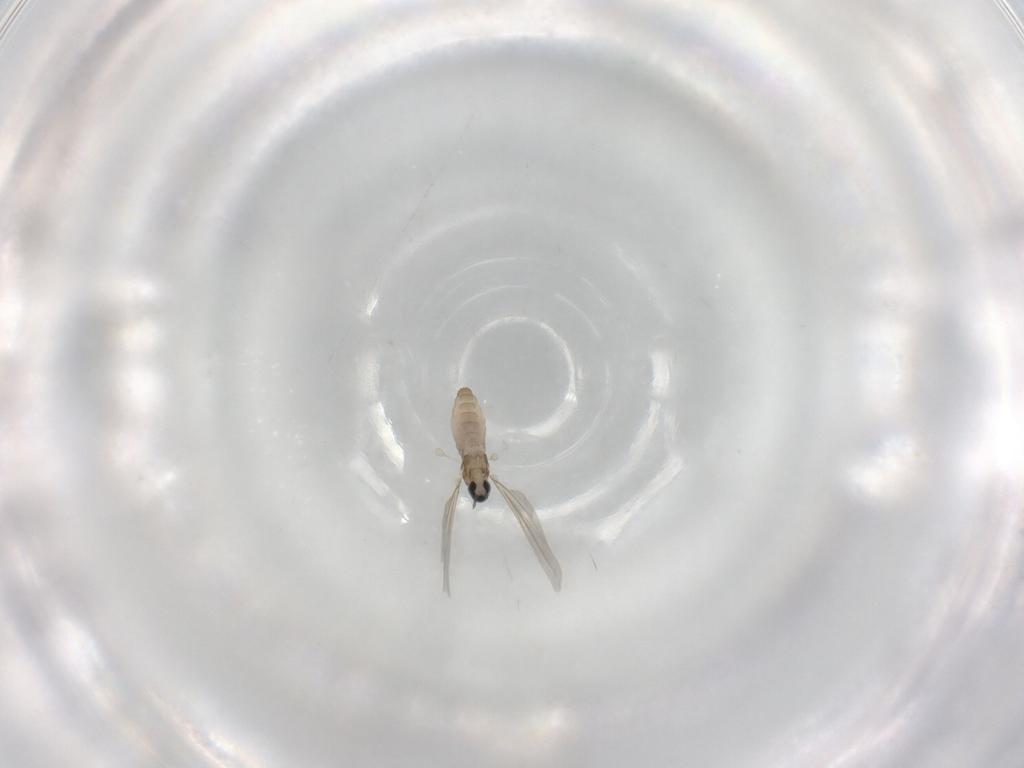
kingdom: Animalia
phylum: Arthropoda
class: Insecta
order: Diptera
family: Cecidomyiidae
